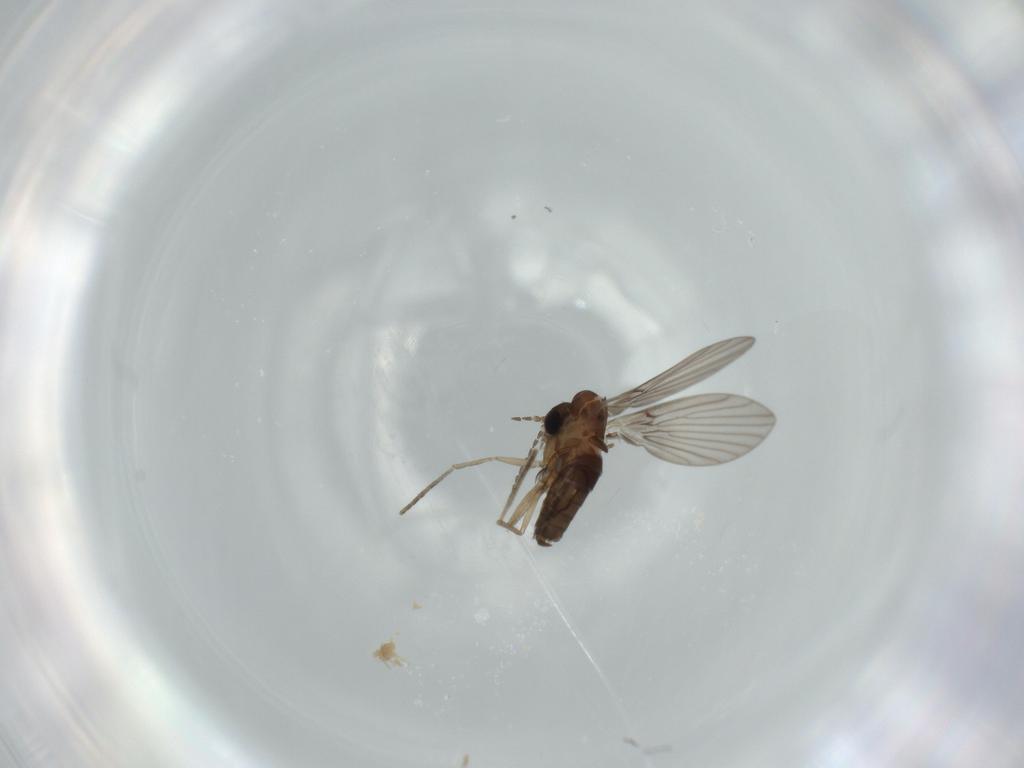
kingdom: Animalia
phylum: Arthropoda
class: Insecta
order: Diptera
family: Psychodidae
